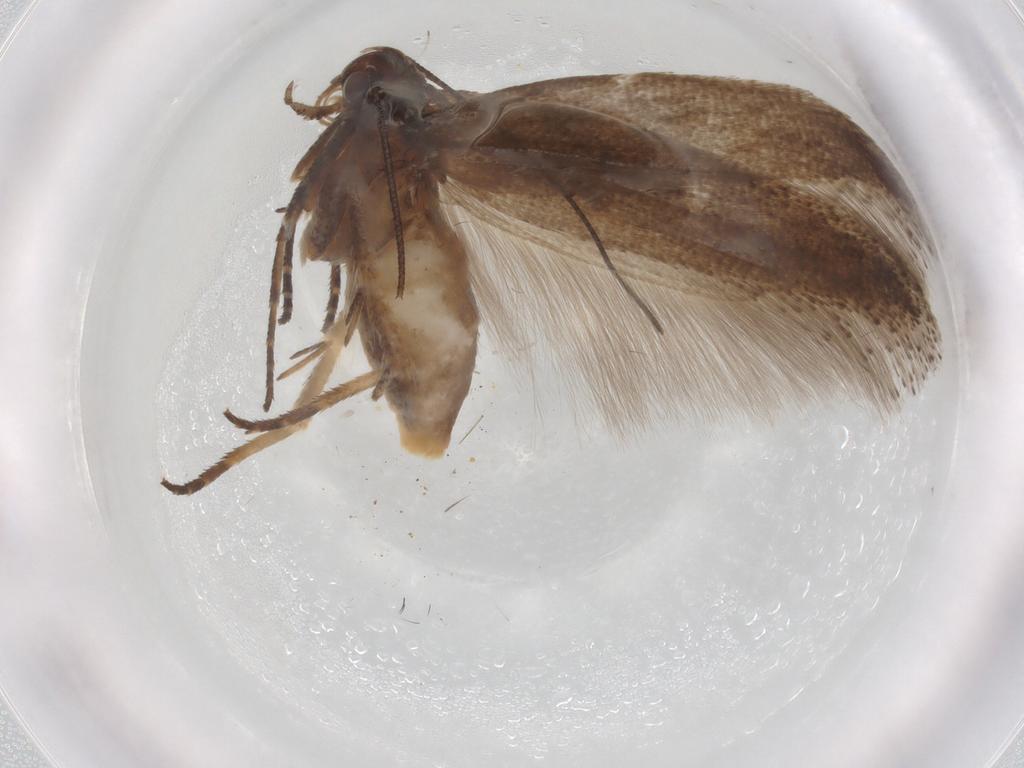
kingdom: Animalia
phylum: Arthropoda
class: Insecta
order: Lepidoptera
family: Gelechiidae
